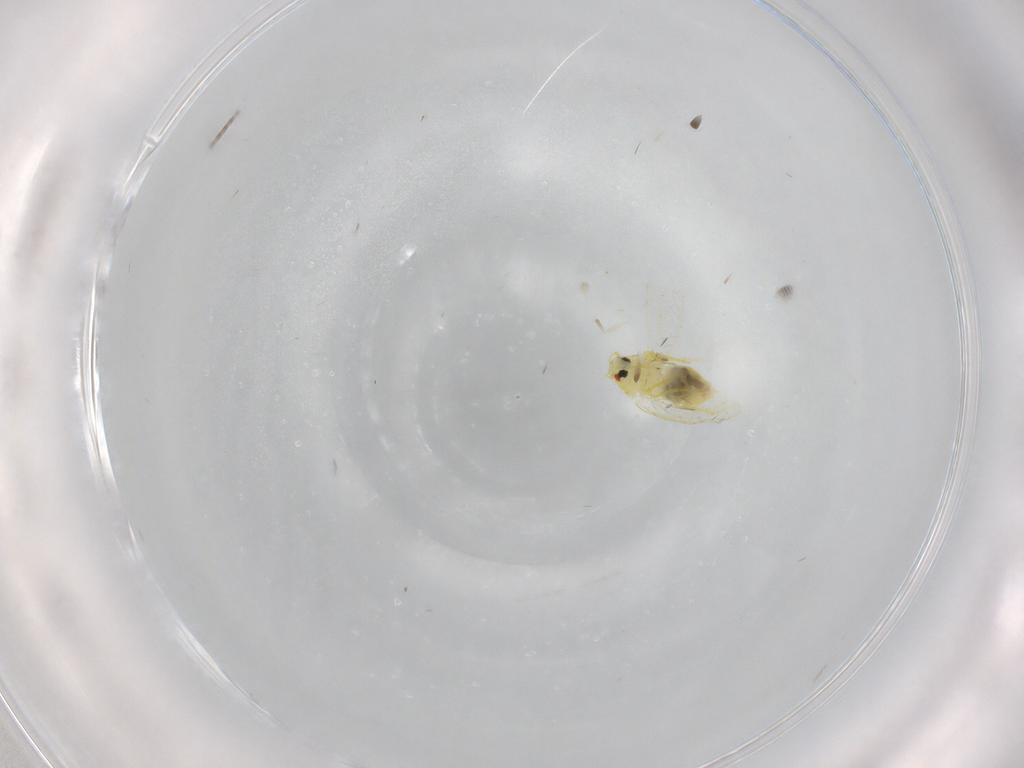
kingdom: Animalia
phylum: Arthropoda
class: Insecta
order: Hemiptera
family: Aleyrodidae
